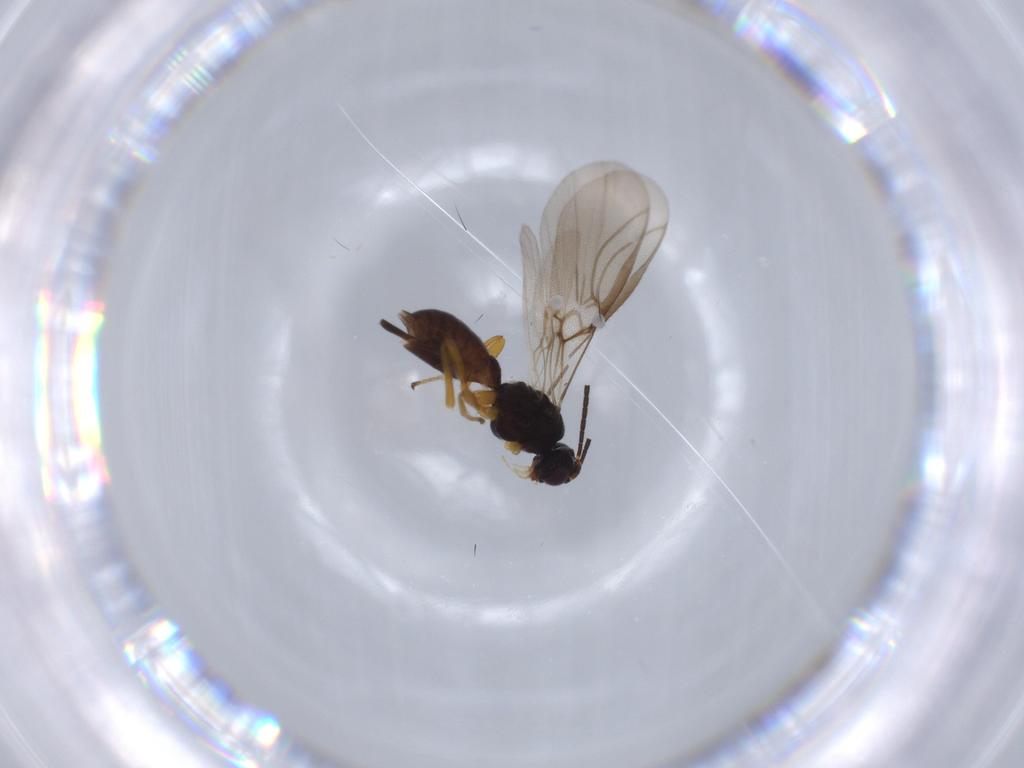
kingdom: Animalia
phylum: Arthropoda
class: Insecta
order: Hymenoptera
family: Braconidae
